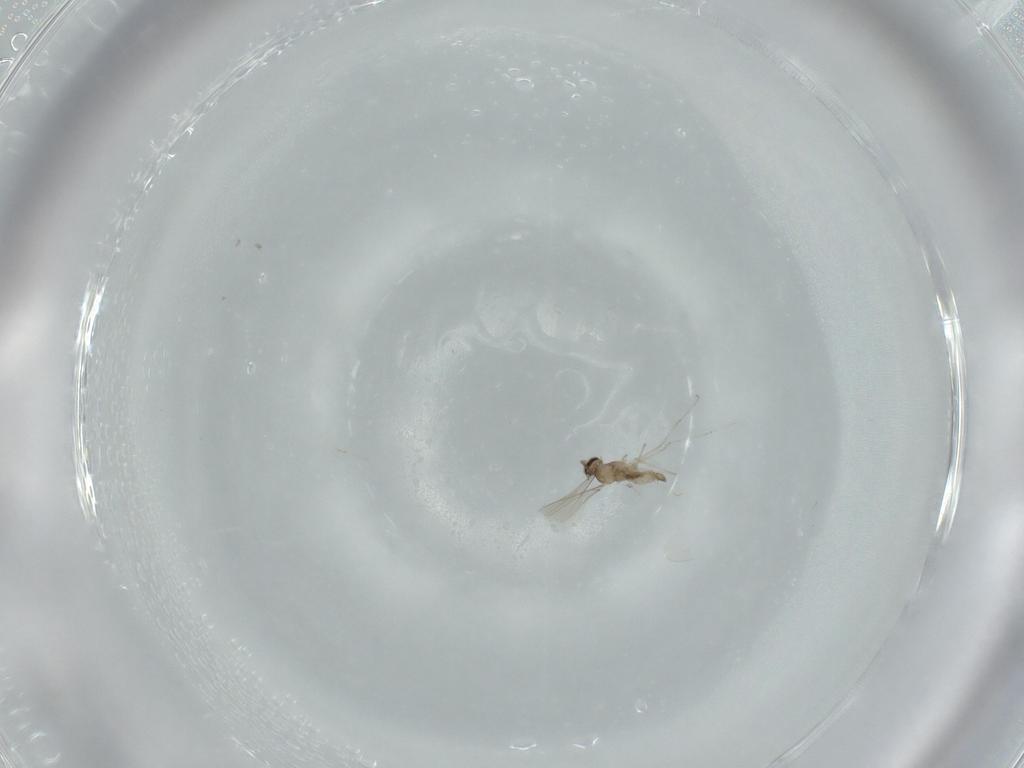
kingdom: Animalia
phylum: Arthropoda
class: Insecta
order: Diptera
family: Cecidomyiidae
